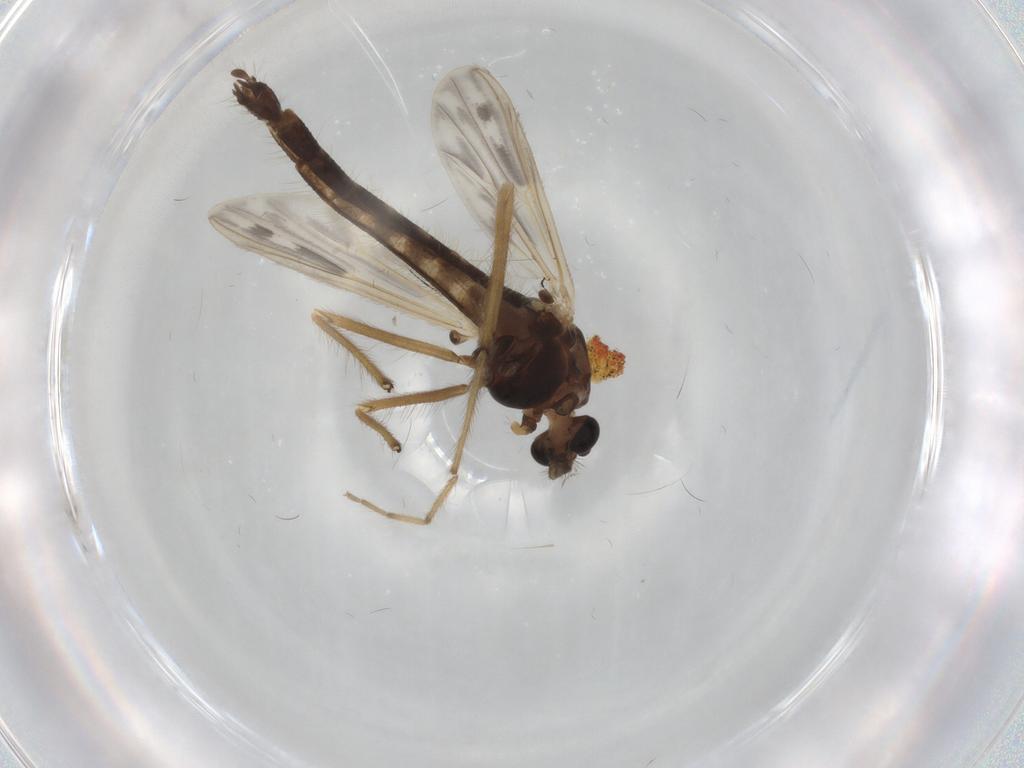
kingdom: Animalia
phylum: Arthropoda
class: Insecta
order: Diptera
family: Chironomidae
